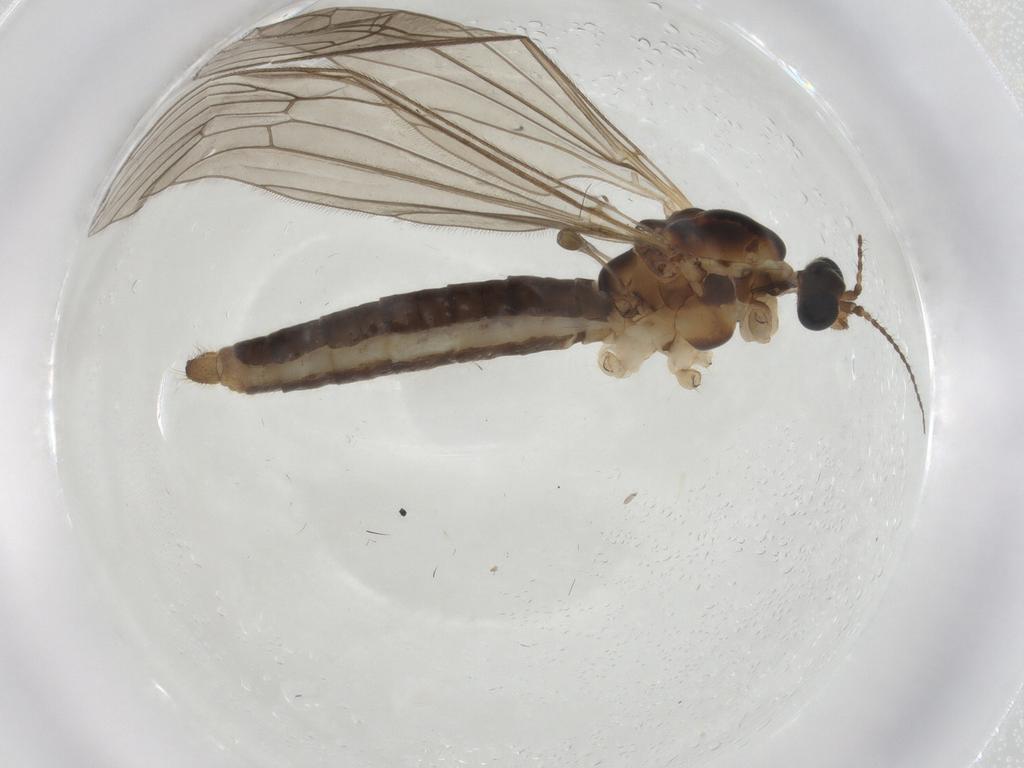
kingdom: Animalia
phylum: Arthropoda
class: Insecta
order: Diptera
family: Sphaeroceridae
